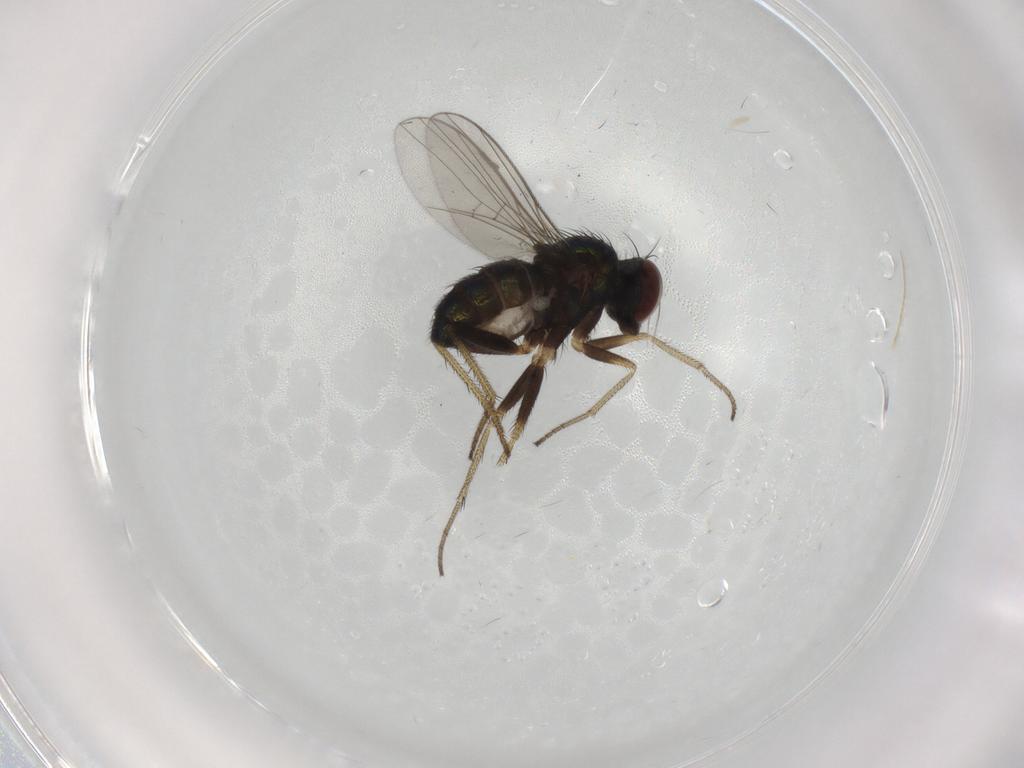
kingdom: Animalia
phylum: Arthropoda
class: Insecta
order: Diptera
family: Dolichopodidae
